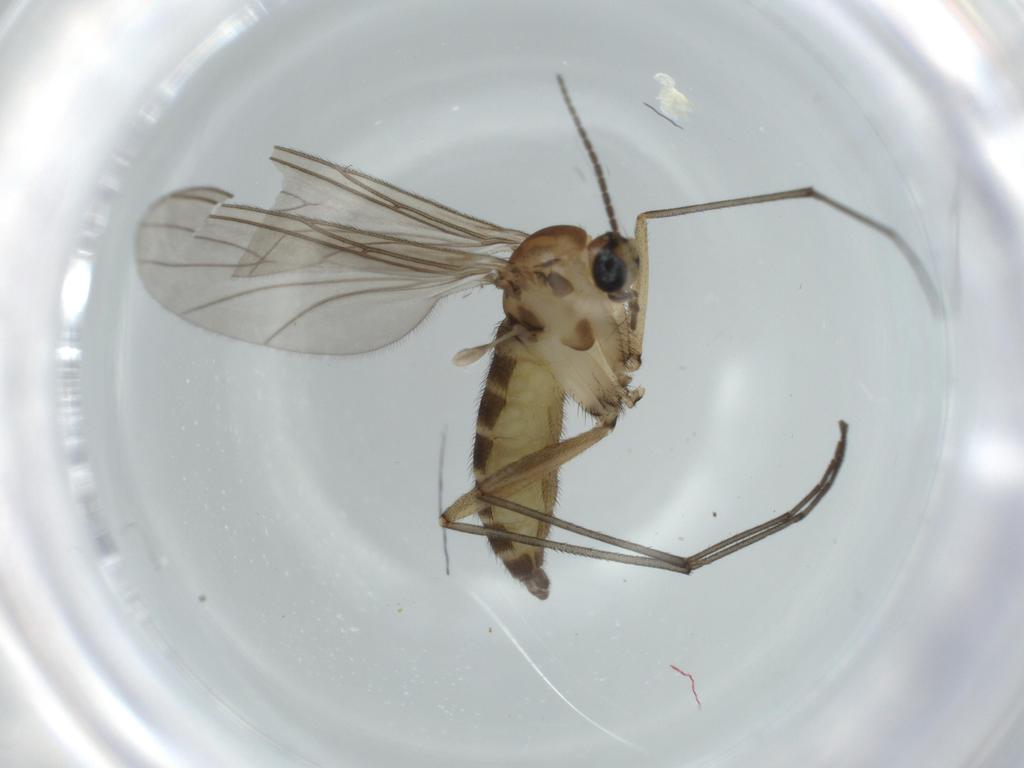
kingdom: Animalia
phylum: Arthropoda
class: Insecta
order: Diptera
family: Sciaridae
